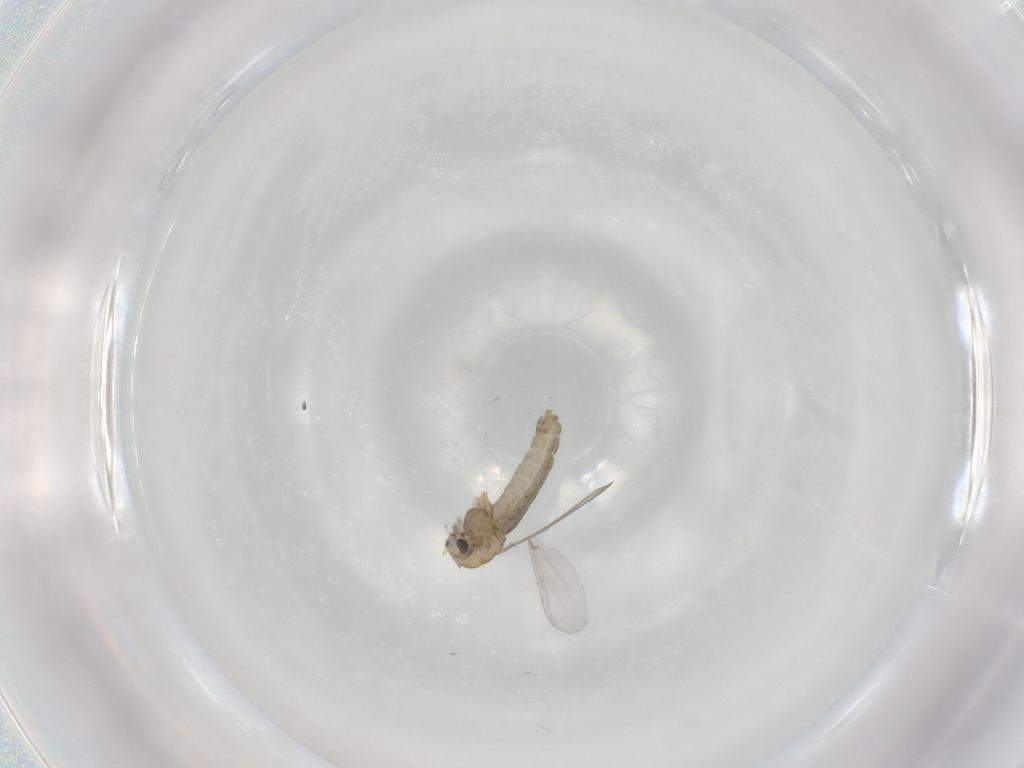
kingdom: Animalia
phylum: Arthropoda
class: Insecta
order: Diptera
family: Chironomidae
